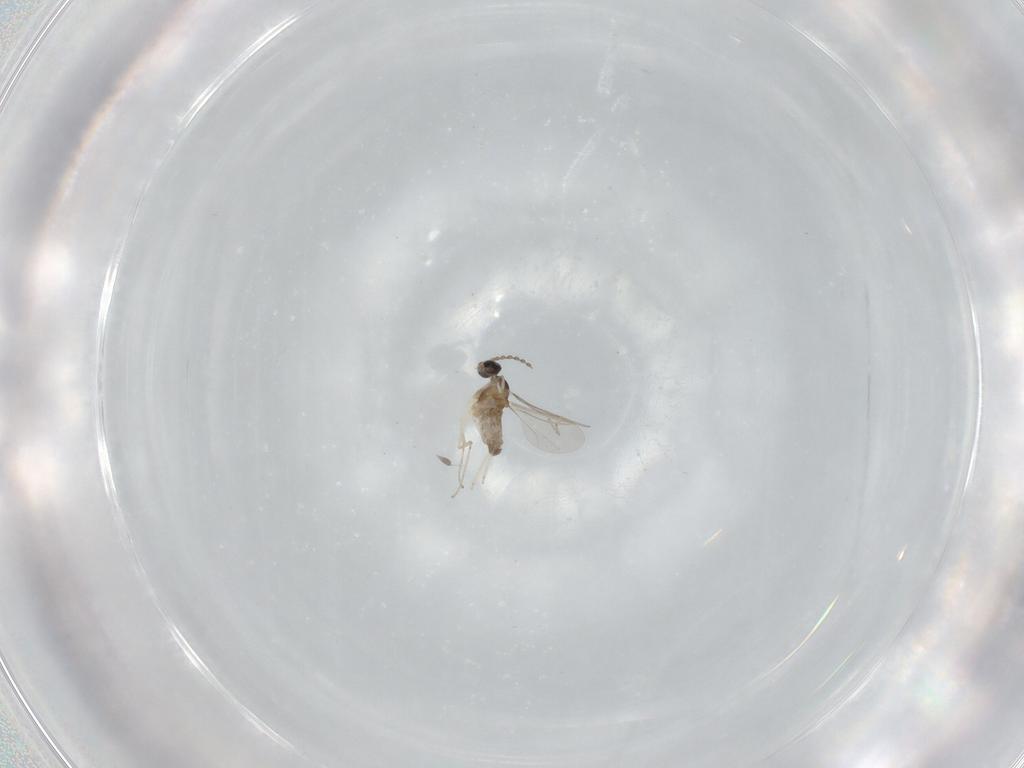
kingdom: Animalia
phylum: Arthropoda
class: Insecta
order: Diptera
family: Cecidomyiidae
